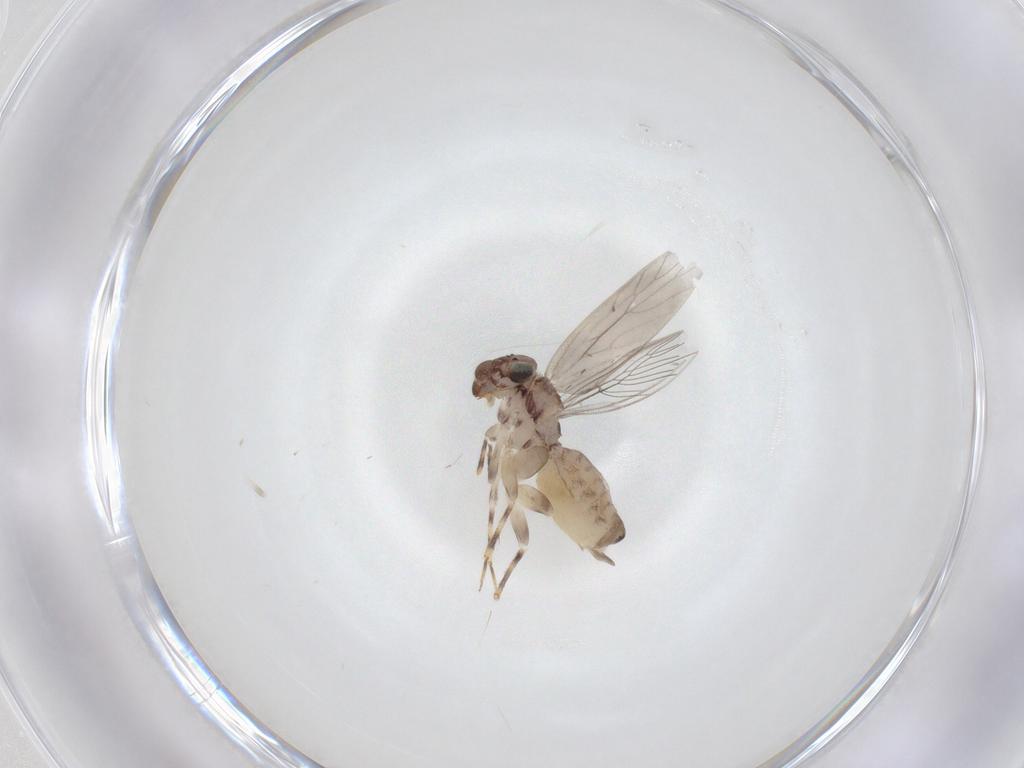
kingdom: Animalia
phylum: Arthropoda
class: Insecta
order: Psocodea
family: Lepidopsocidae
